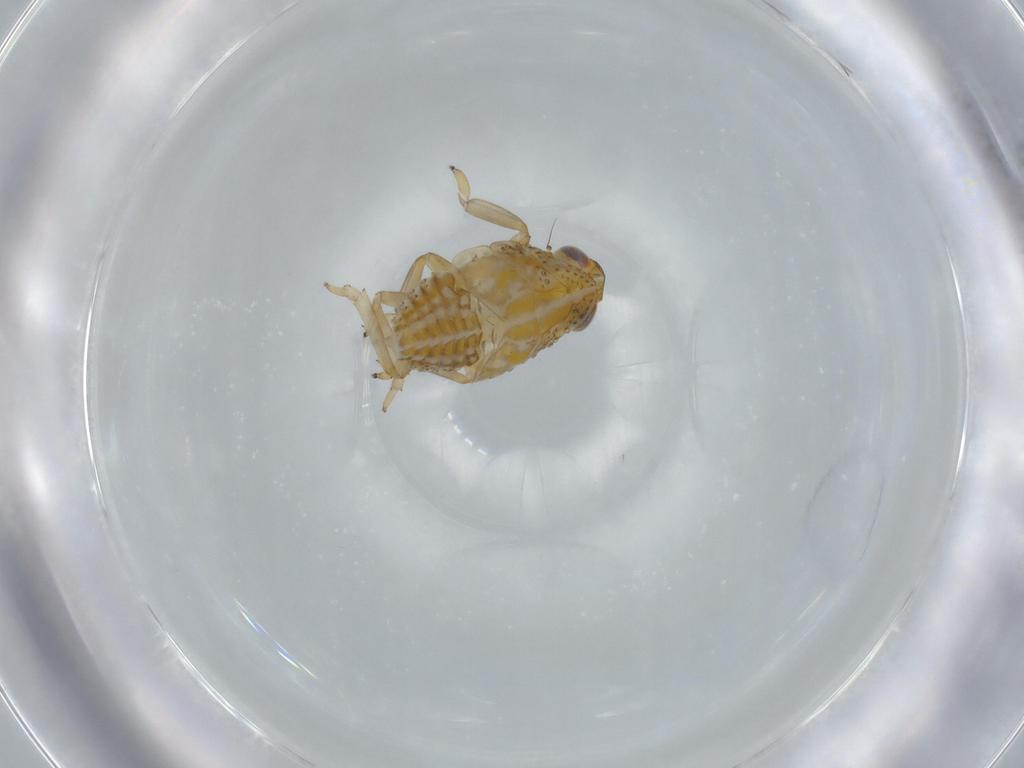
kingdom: Animalia
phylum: Arthropoda
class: Insecta
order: Hemiptera
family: Issidae
